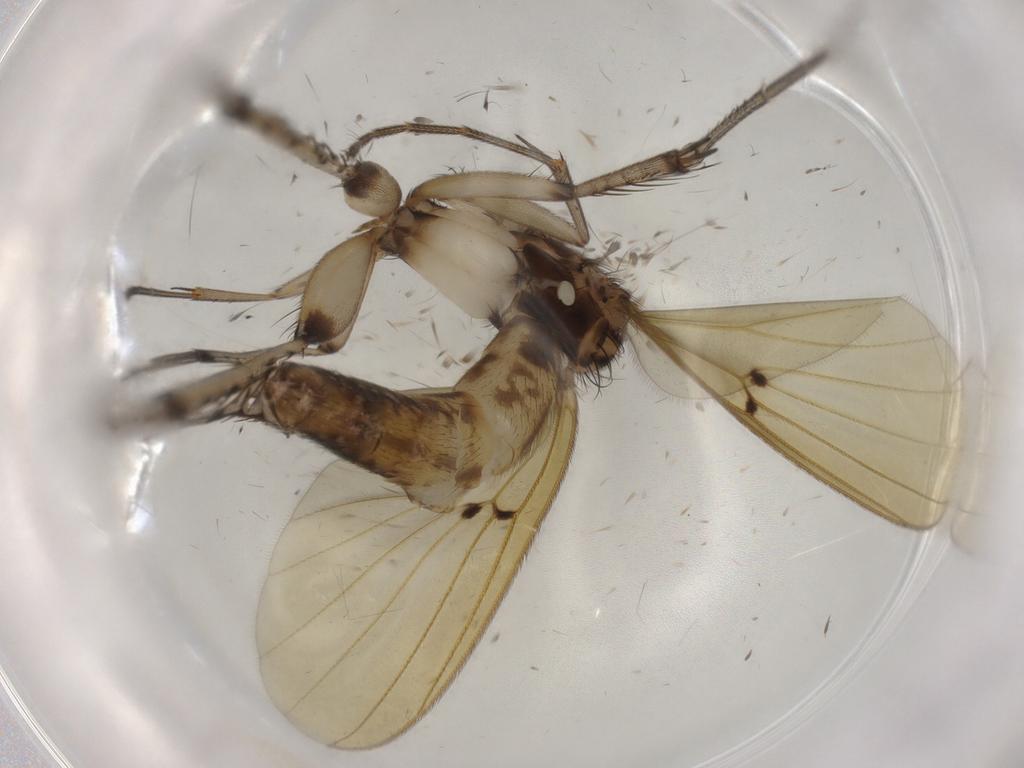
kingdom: Animalia
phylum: Arthropoda
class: Insecta
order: Diptera
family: Mycetophilidae
